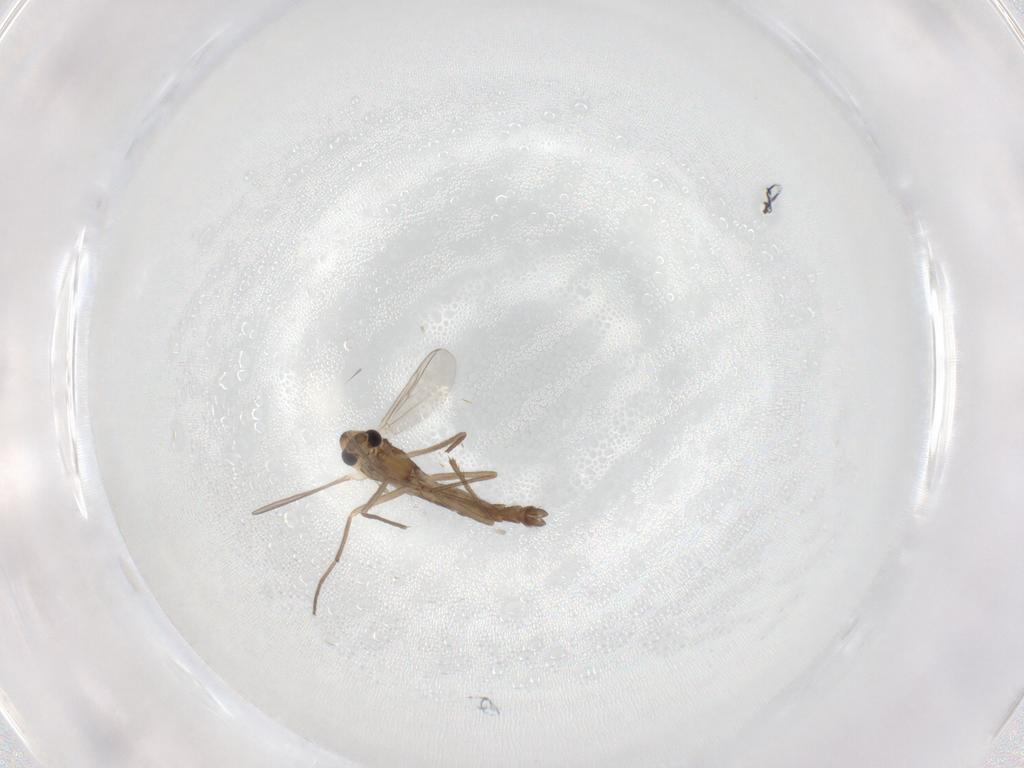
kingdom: Animalia
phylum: Arthropoda
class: Insecta
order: Diptera
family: Chironomidae
